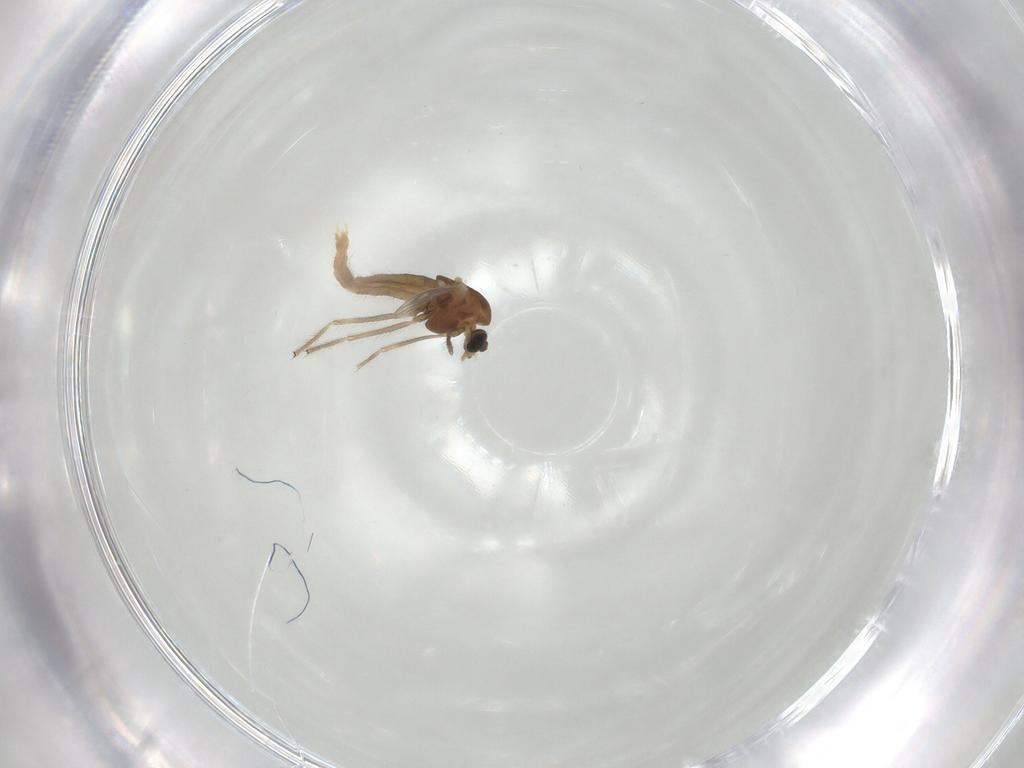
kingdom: Animalia
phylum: Arthropoda
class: Insecta
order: Diptera
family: Chironomidae
